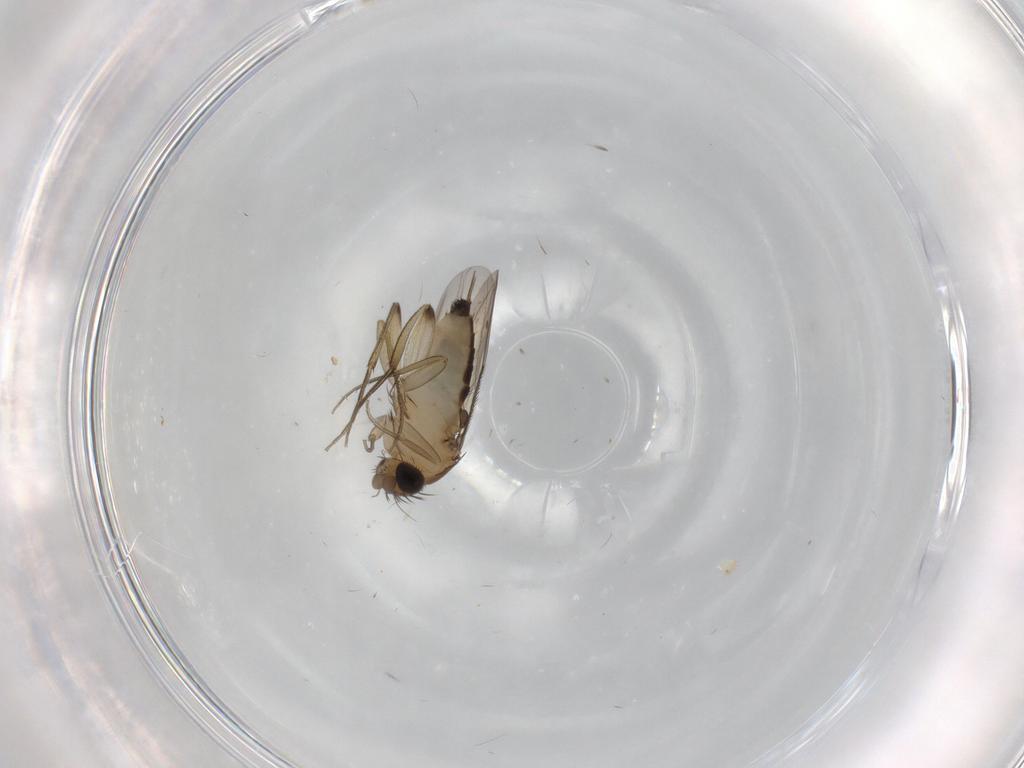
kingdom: Animalia
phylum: Arthropoda
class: Insecta
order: Diptera
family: Phoridae
